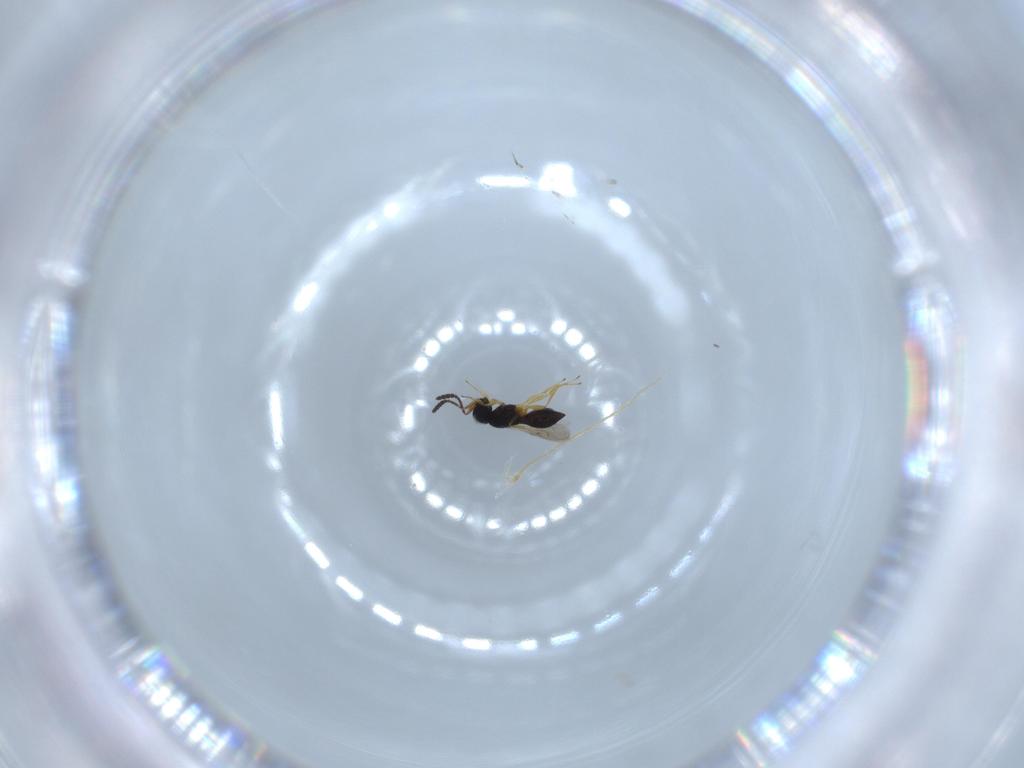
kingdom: Animalia
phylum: Arthropoda
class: Insecta
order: Hymenoptera
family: Scelionidae
